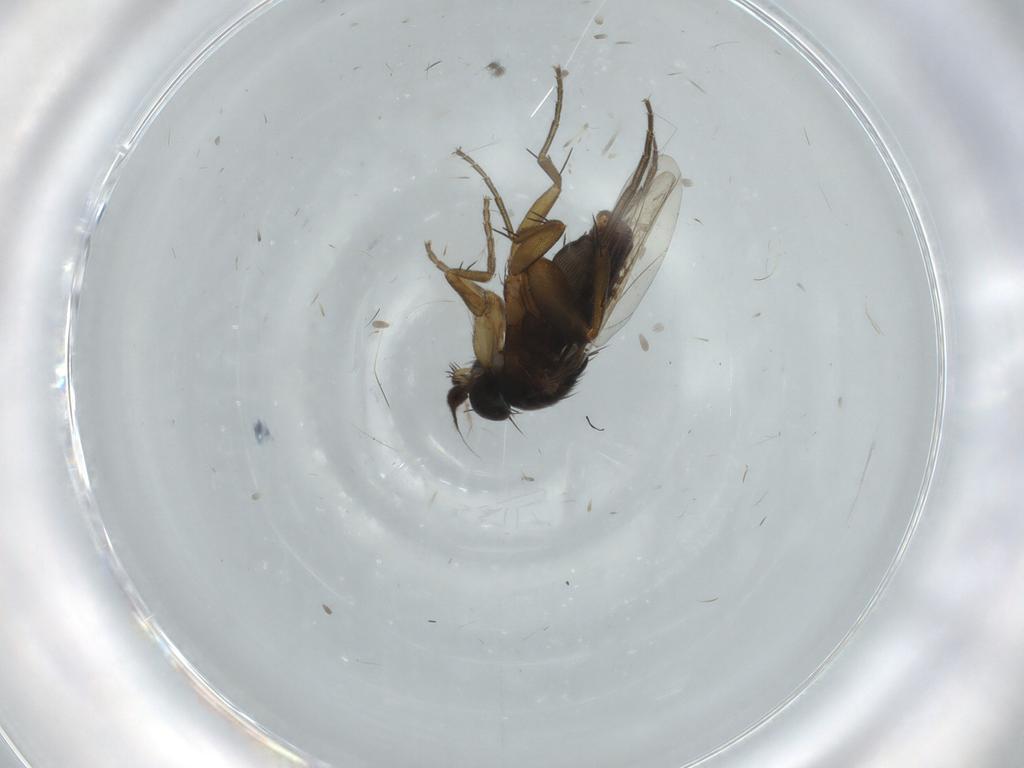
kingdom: Animalia
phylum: Arthropoda
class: Insecta
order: Diptera
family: Phoridae
